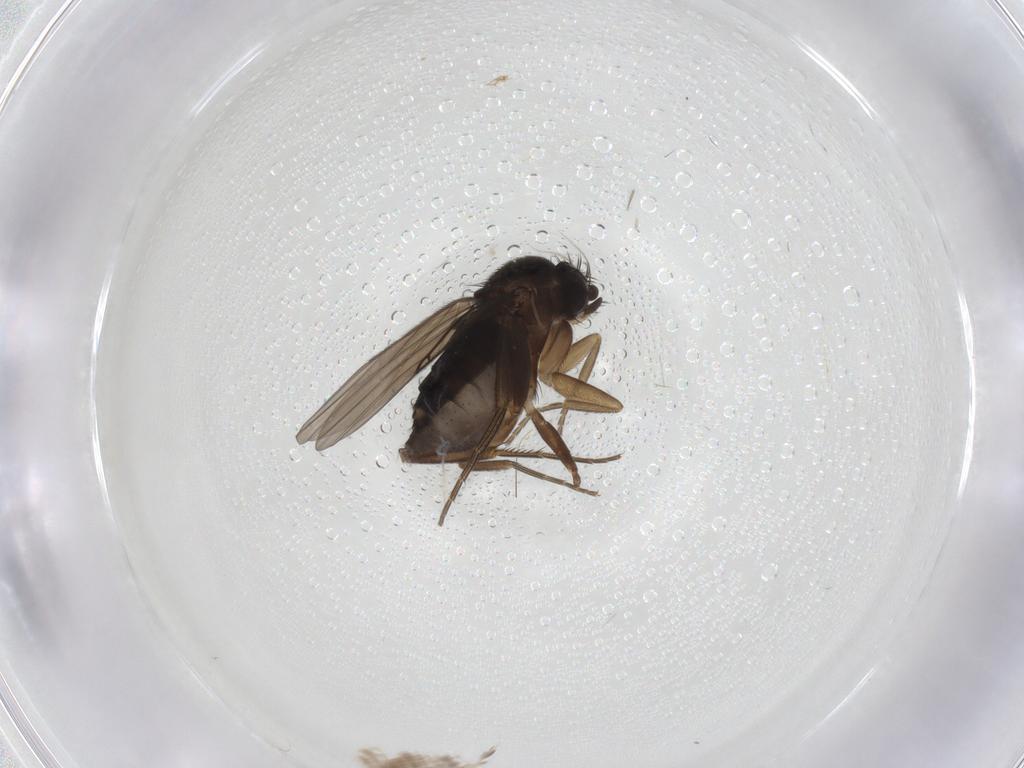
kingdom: Animalia
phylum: Arthropoda
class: Insecta
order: Diptera
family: Phoridae
